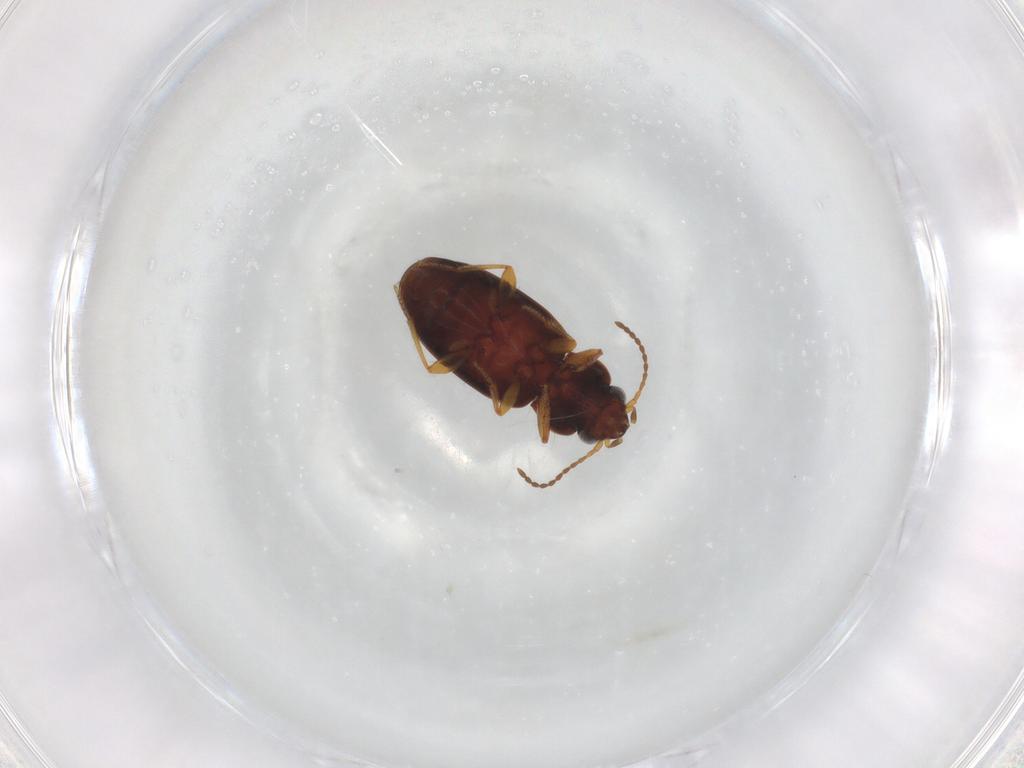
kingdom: Animalia
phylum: Arthropoda
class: Insecta
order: Coleoptera
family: Carabidae
